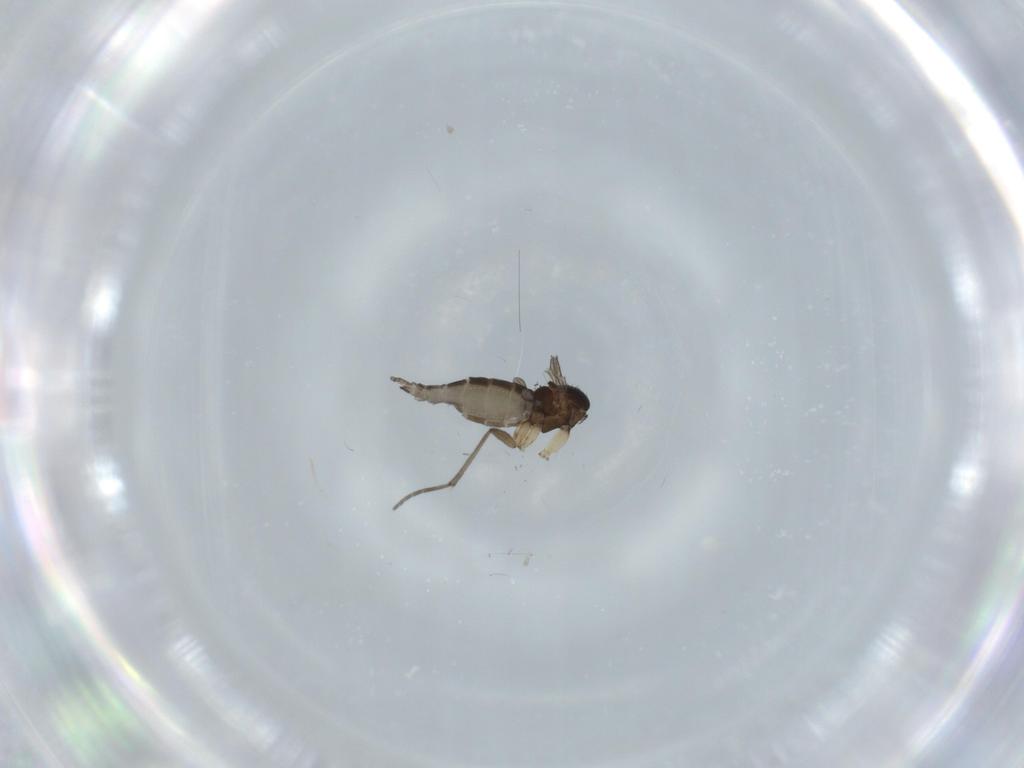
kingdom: Animalia
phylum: Arthropoda
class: Insecta
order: Diptera
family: Sciaridae
